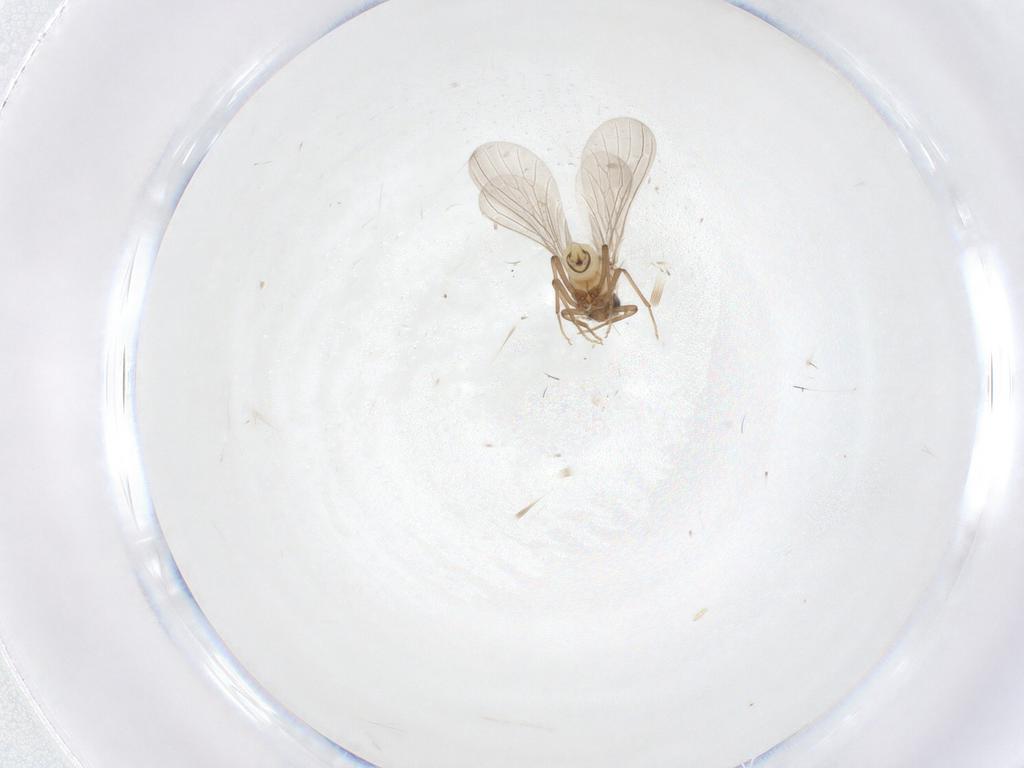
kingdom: Animalia
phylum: Arthropoda
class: Insecta
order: Neuroptera
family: Coniopterygidae
